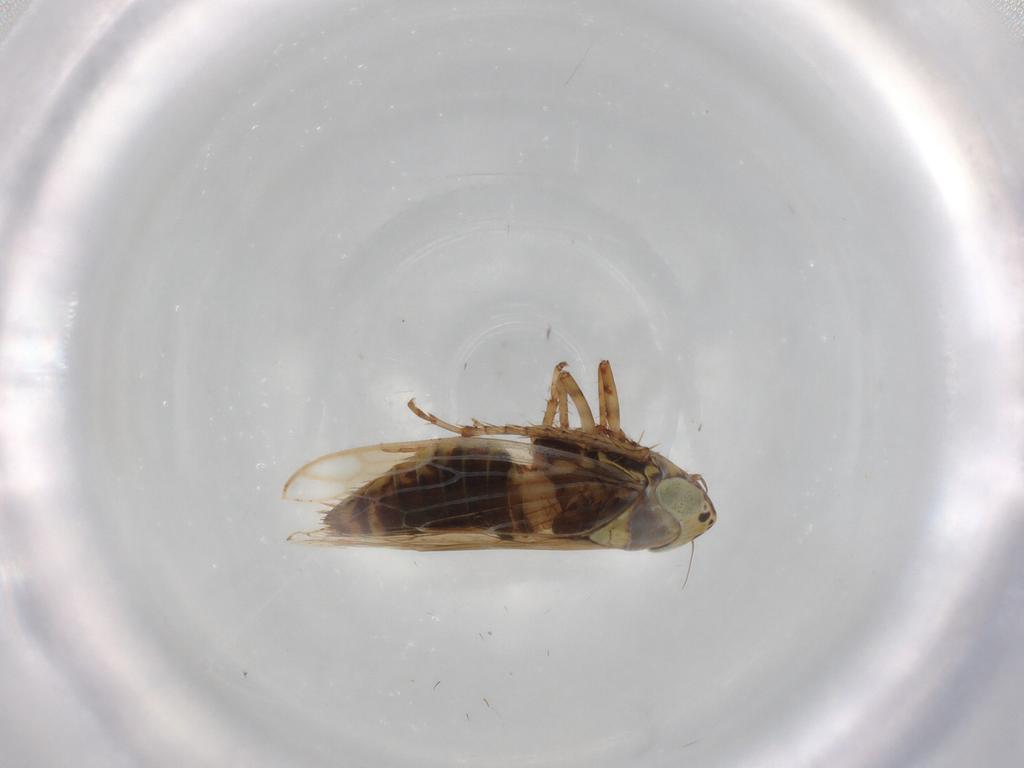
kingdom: Animalia
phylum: Arthropoda
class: Insecta
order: Hemiptera
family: Cicadellidae
